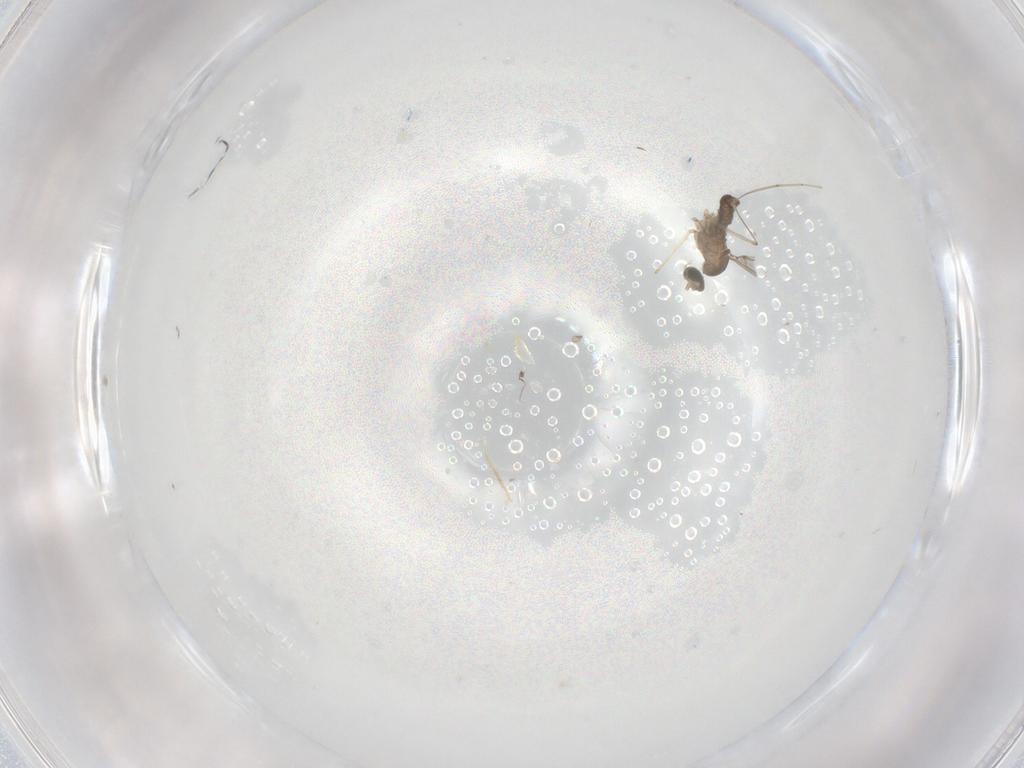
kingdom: Animalia
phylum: Arthropoda
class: Insecta
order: Diptera
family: Cecidomyiidae
